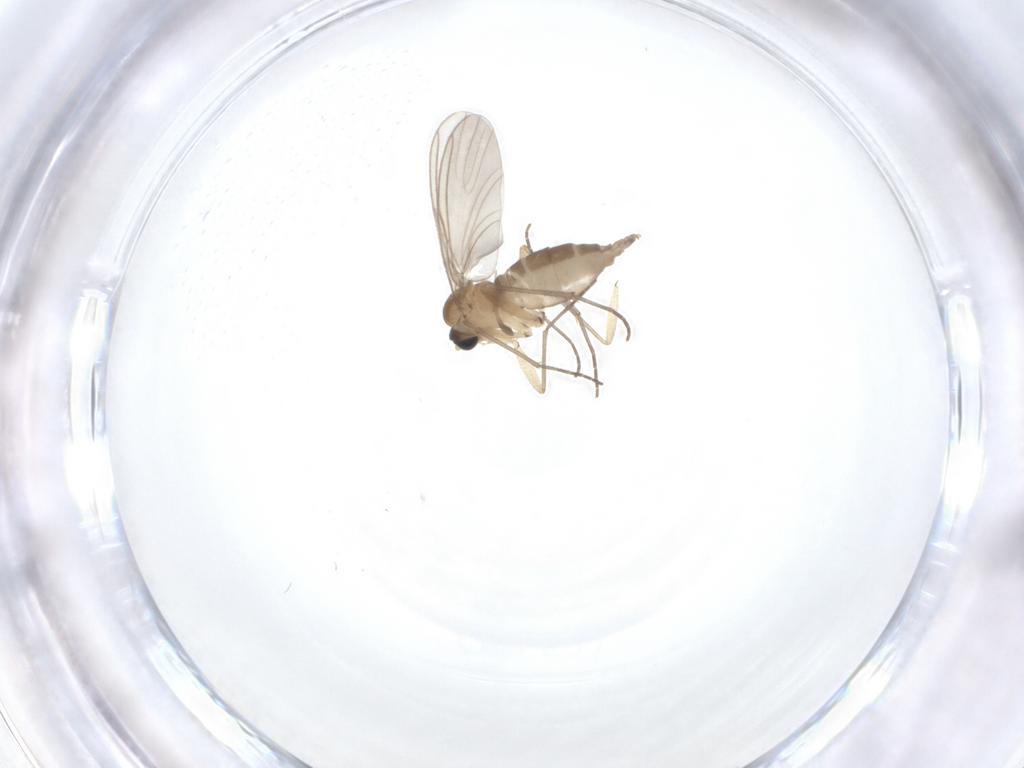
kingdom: Animalia
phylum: Arthropoda
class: Insecta
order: Diptera
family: Sciaridae
